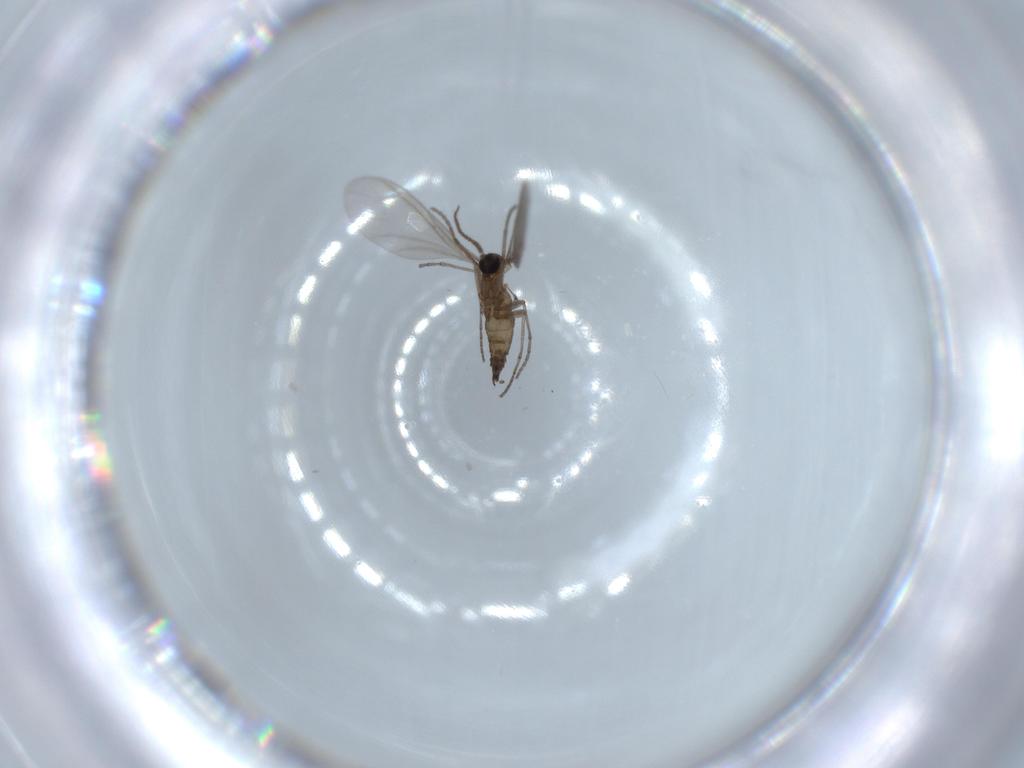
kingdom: Animalia
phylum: Arthropoda
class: Insecta
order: Diptera
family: Sciaridae
